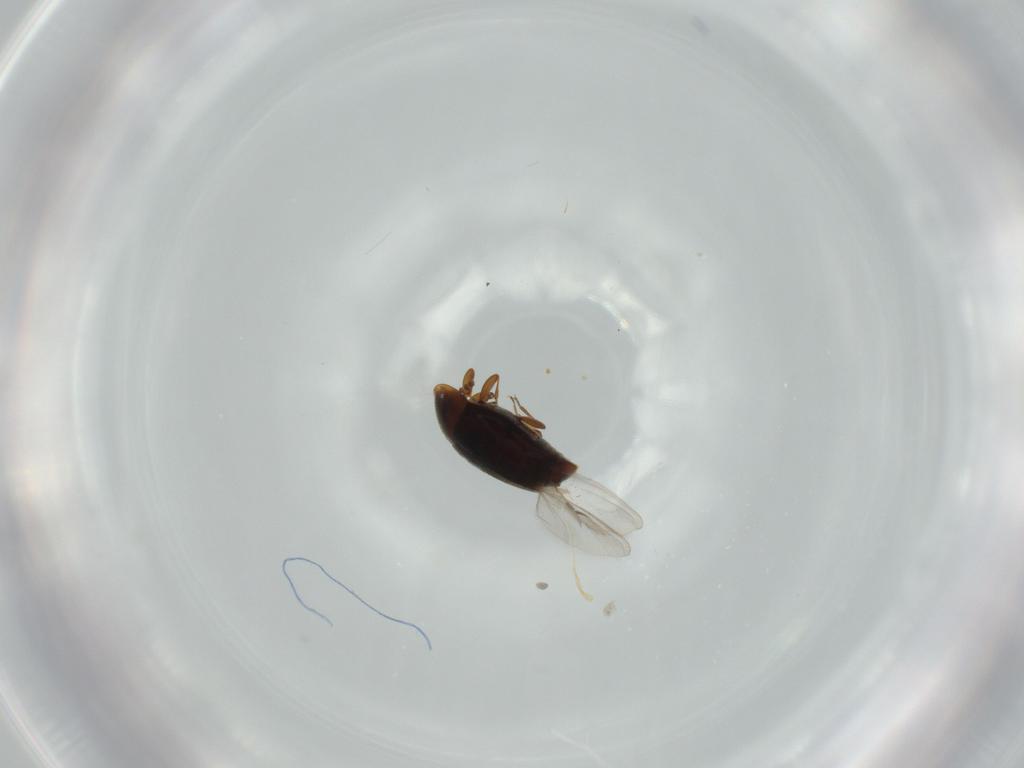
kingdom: Animalia
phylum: Arthropoda
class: Insecta
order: Coleoptera
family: Corylophidae
